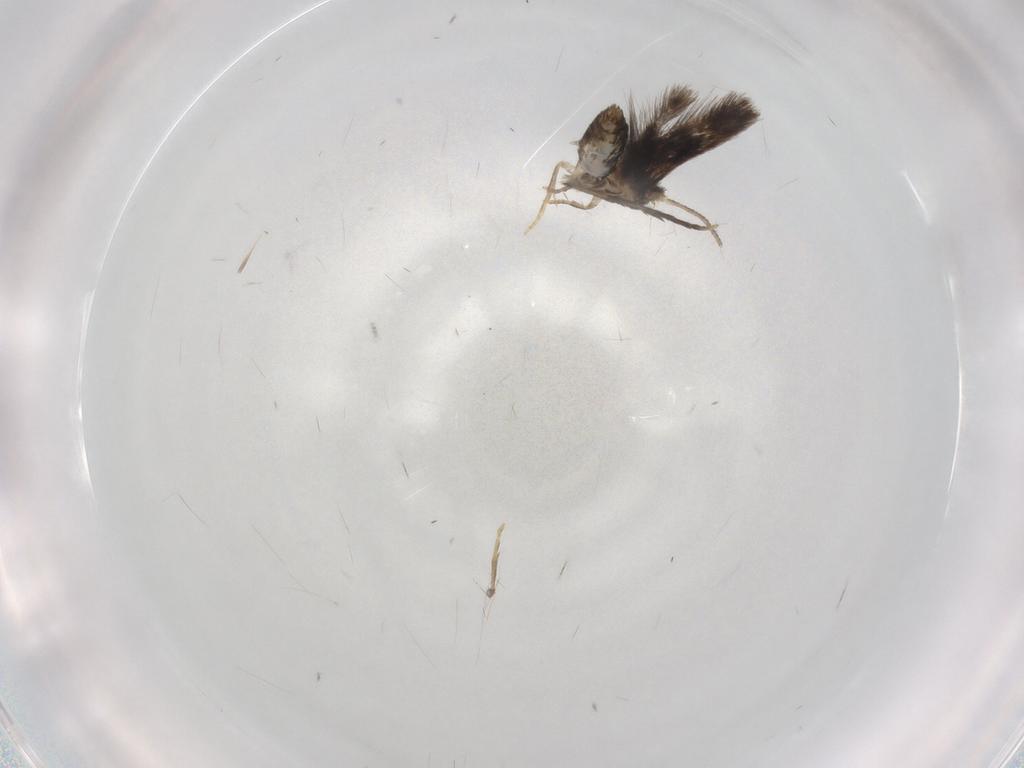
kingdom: Animalia
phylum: Arthropoda
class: Insecta
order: Lepidoptera
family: Nepticulidae
